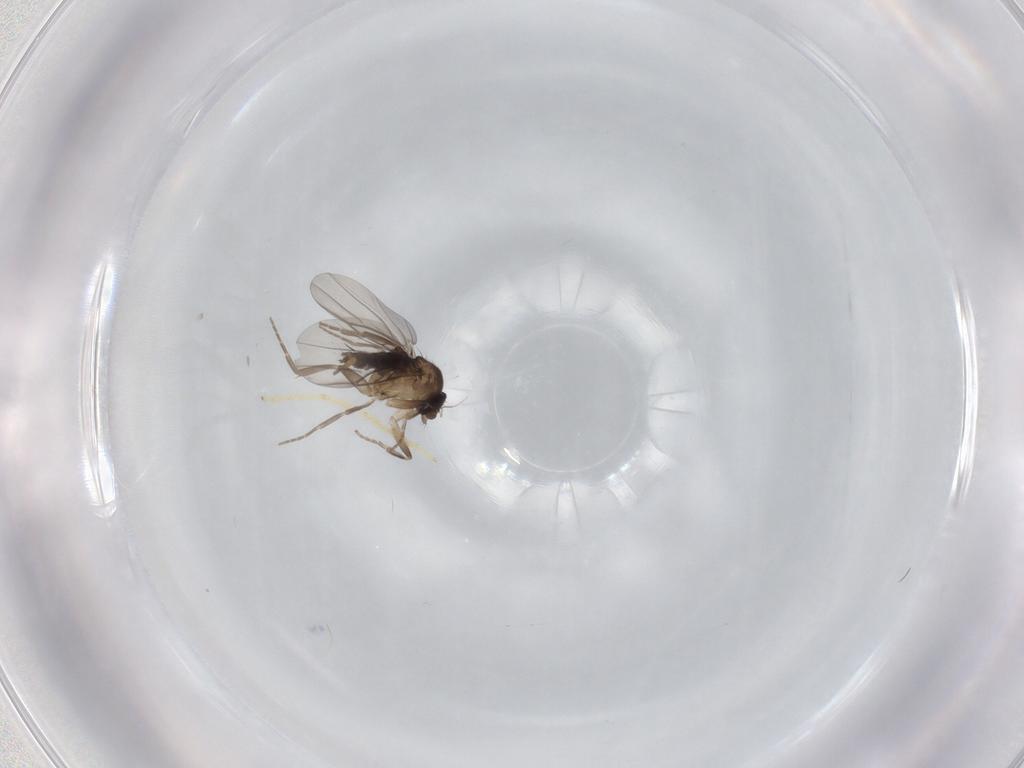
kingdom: Animalia
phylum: Arthropoda
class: Insecta
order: Diptera
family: Chironomidae
